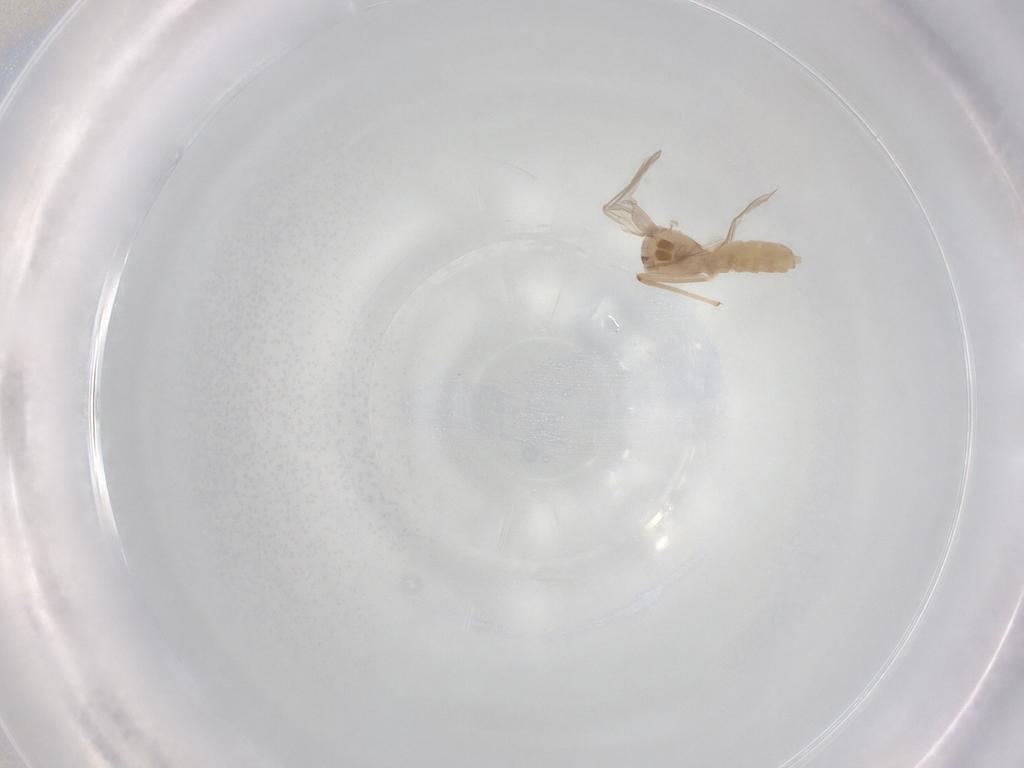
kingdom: Animalia
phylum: Arthropoda
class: Insecta
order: Diptera
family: Chironomidae
